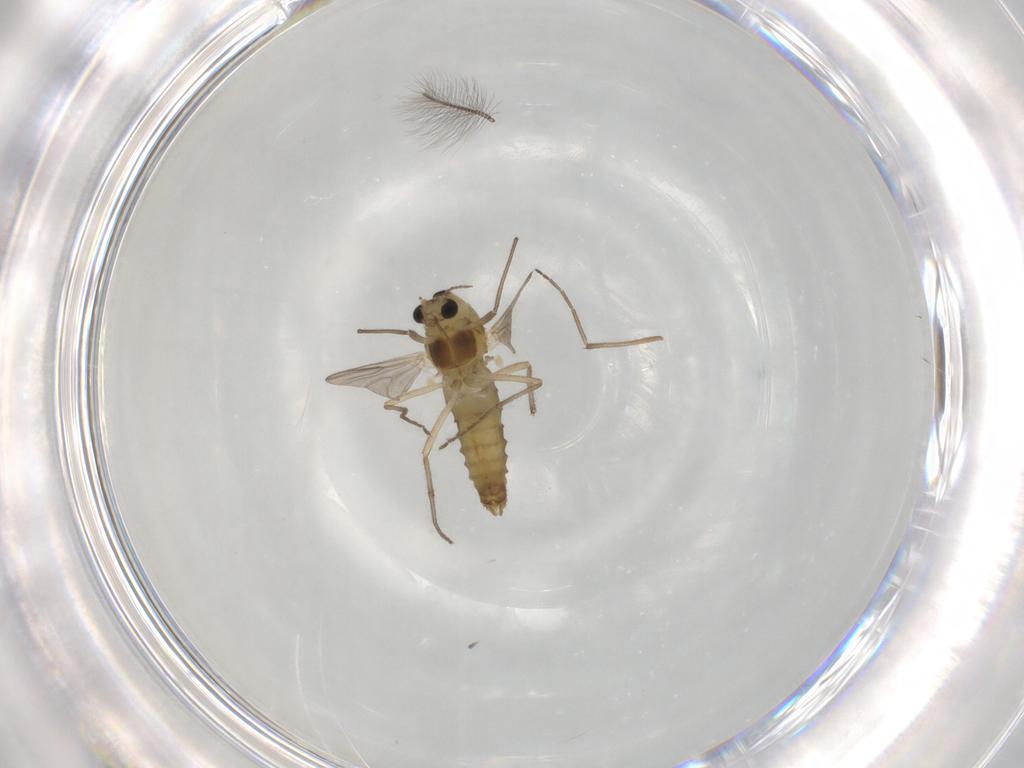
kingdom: Animalia
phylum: Arthropoda
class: Insecta
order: Diptera
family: Chironomidae
